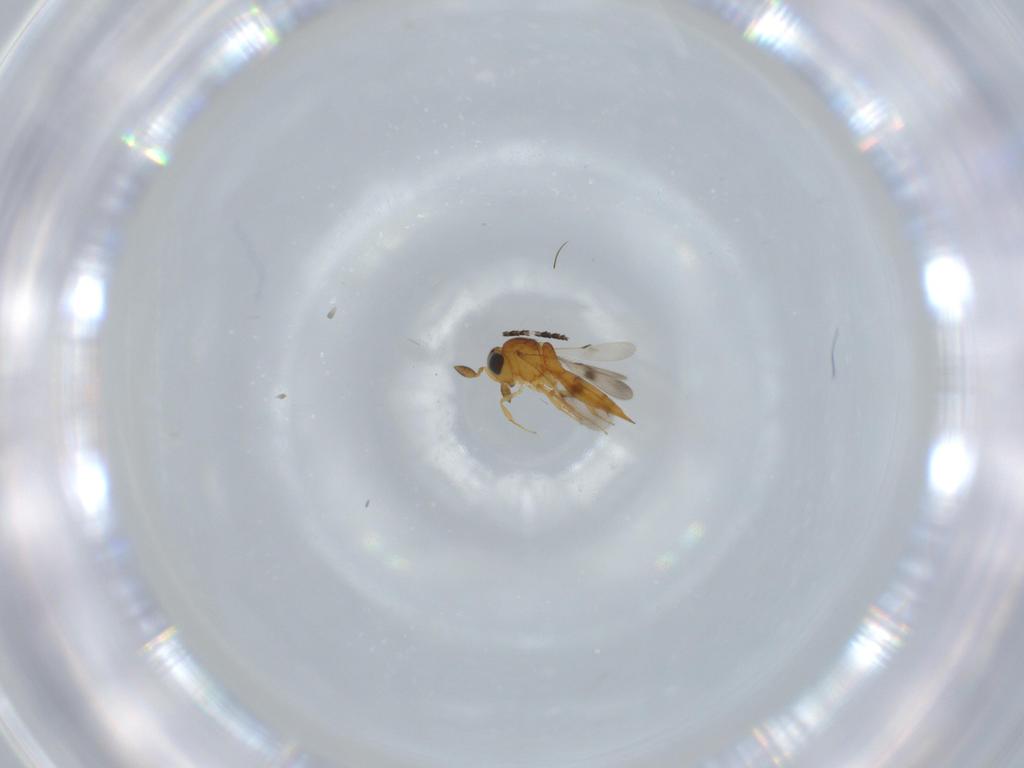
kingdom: Animalia
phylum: Arthropoda
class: Insecta
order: Hymenoptera
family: Scelionidae
